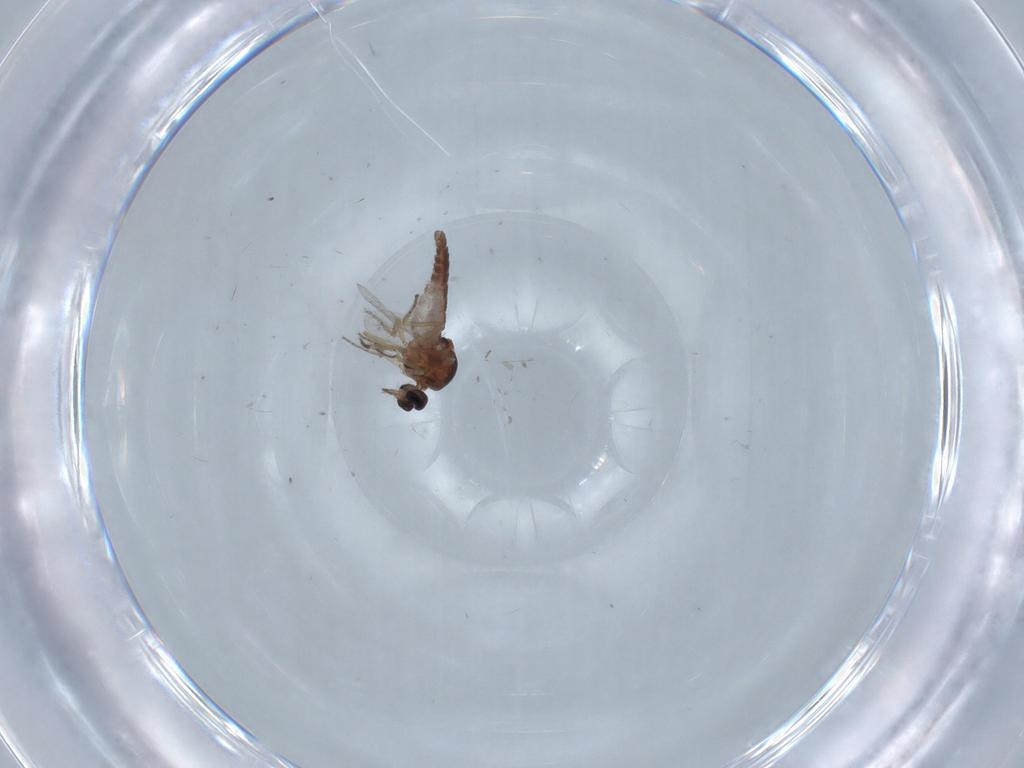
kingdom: Animalia
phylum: Arthropoda
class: Insecta
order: Diptera
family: Ceratopogonidae
